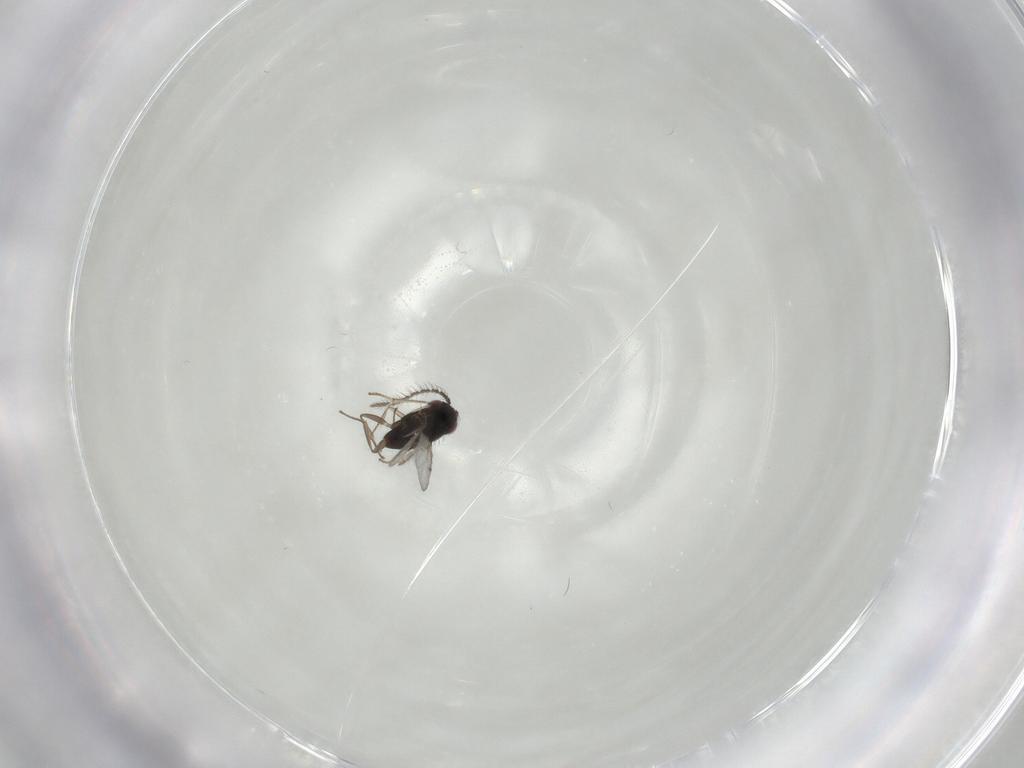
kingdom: Animalia
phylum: Arthropoda
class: Insecta
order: Hymenoptera
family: Encyrtidae
